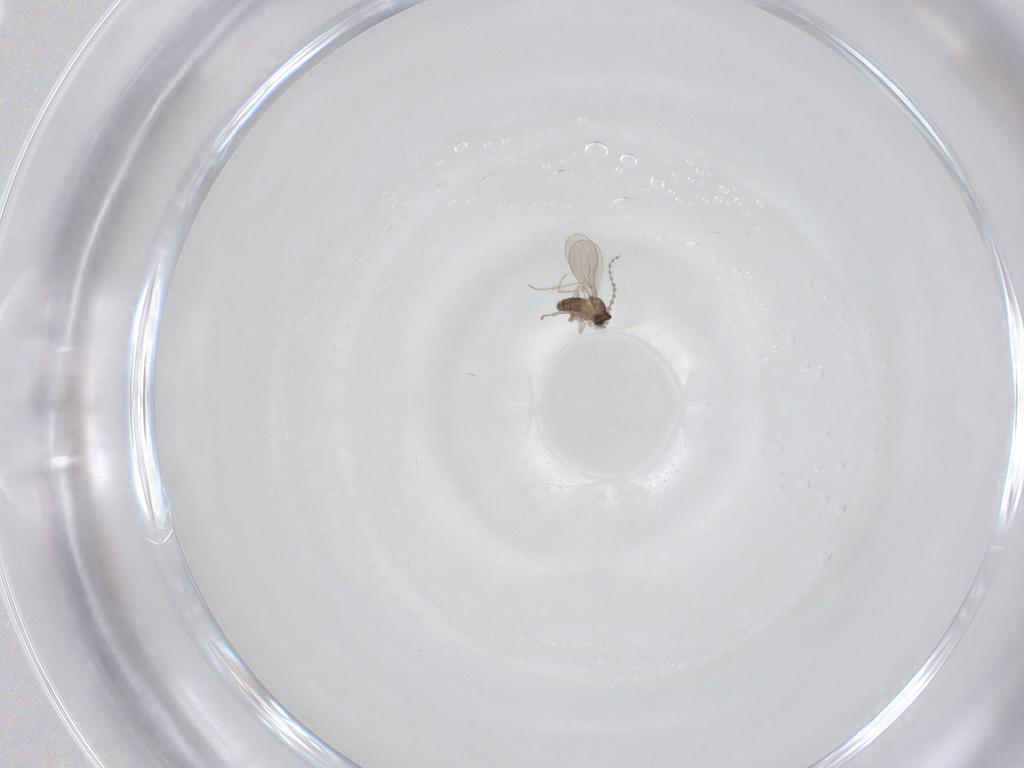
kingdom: Animalia
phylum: Arthropoda
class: Insecta
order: Diptera
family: Cecidomyiidae
